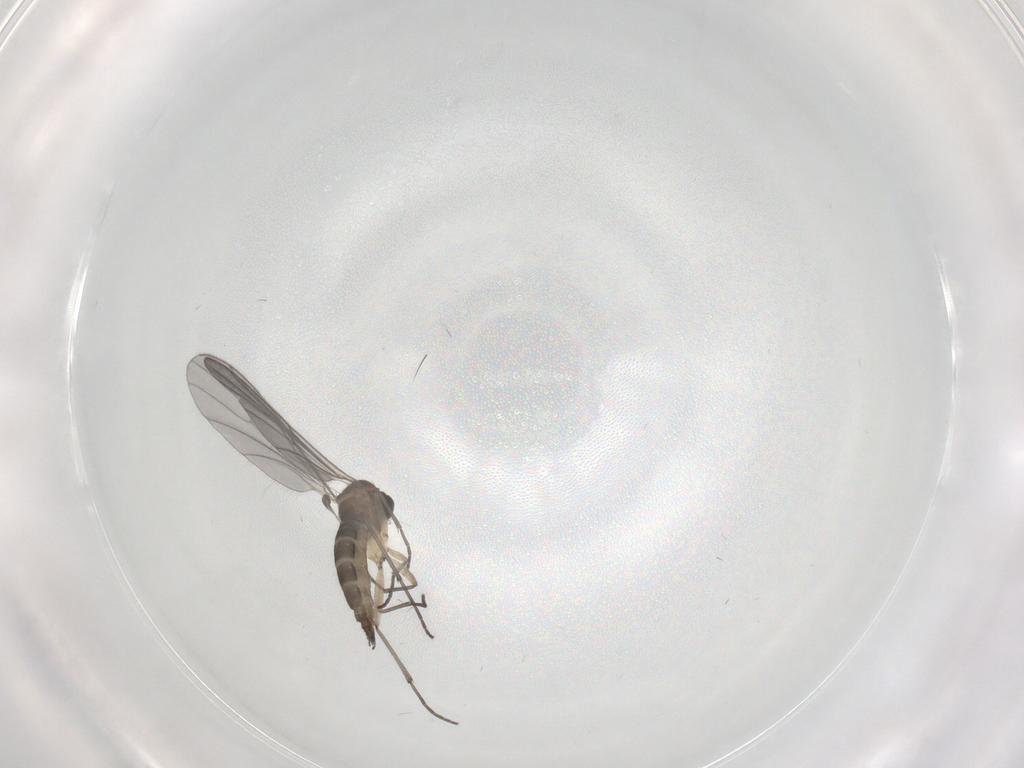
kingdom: Animalia
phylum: Arthropoda
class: Insecta
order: Diptera
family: Sciaridae
